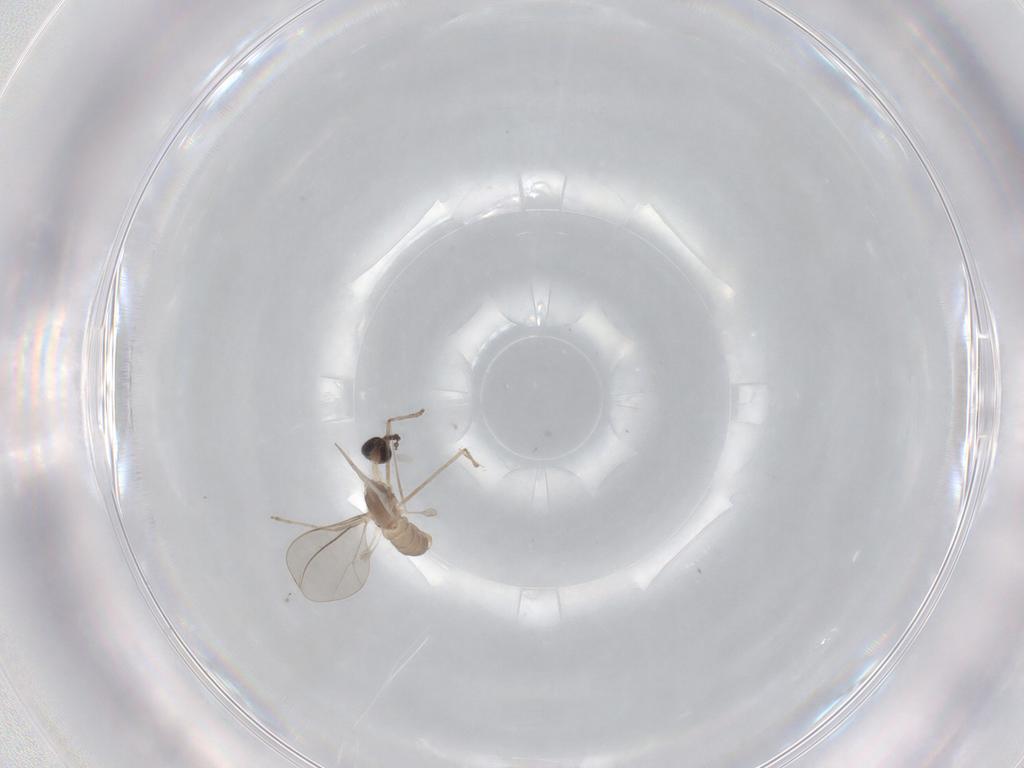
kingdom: Animalia
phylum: Arthropoda
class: Insecta
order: Diptera
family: Cecidomyiidae
